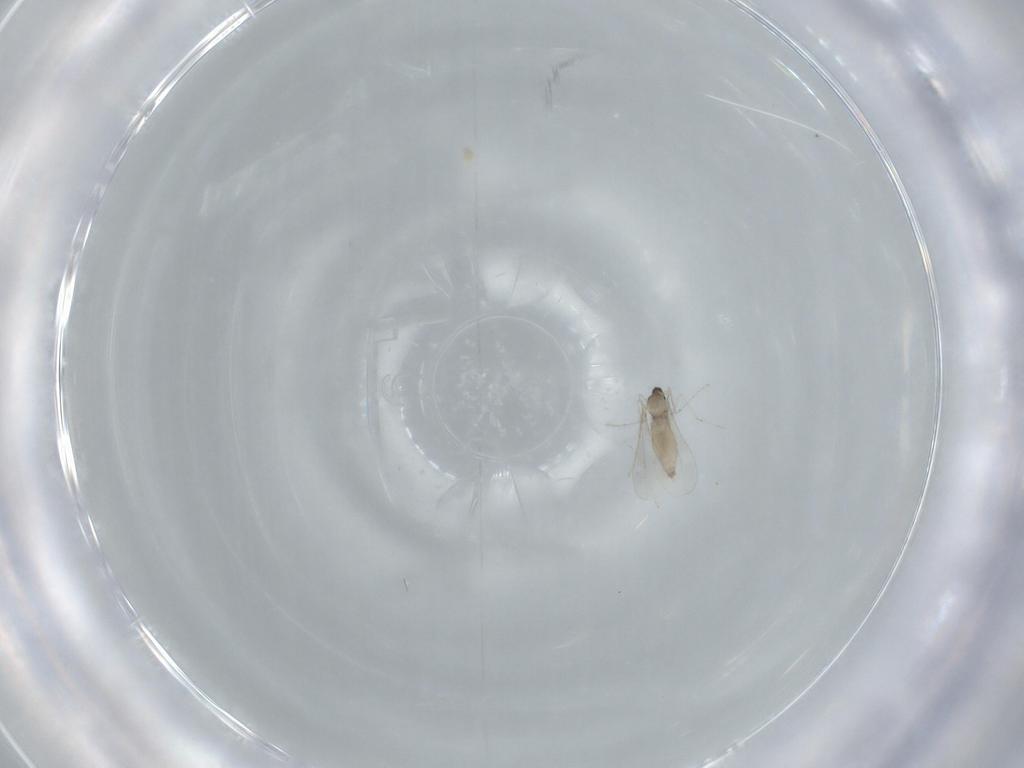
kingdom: Animalia
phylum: Arthropoda
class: Insecta
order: Diptera
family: Cecidomyiidae
